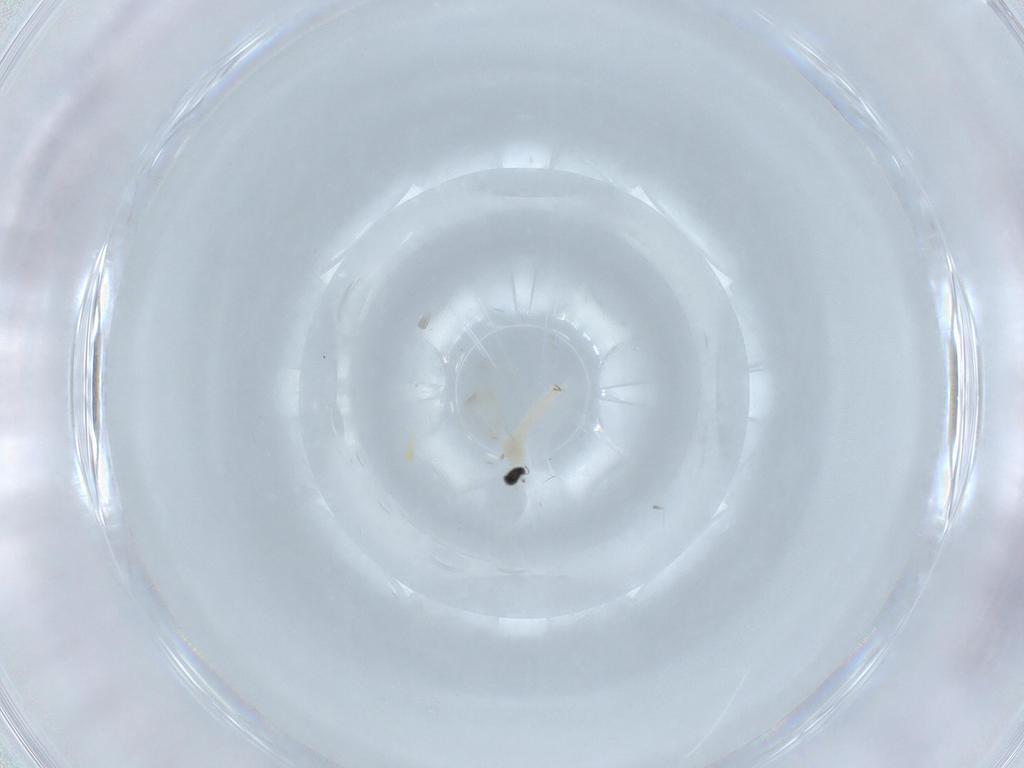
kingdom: Animalia
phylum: Arthropoda
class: Insecta
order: Diptera
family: Cecidomyiidae
